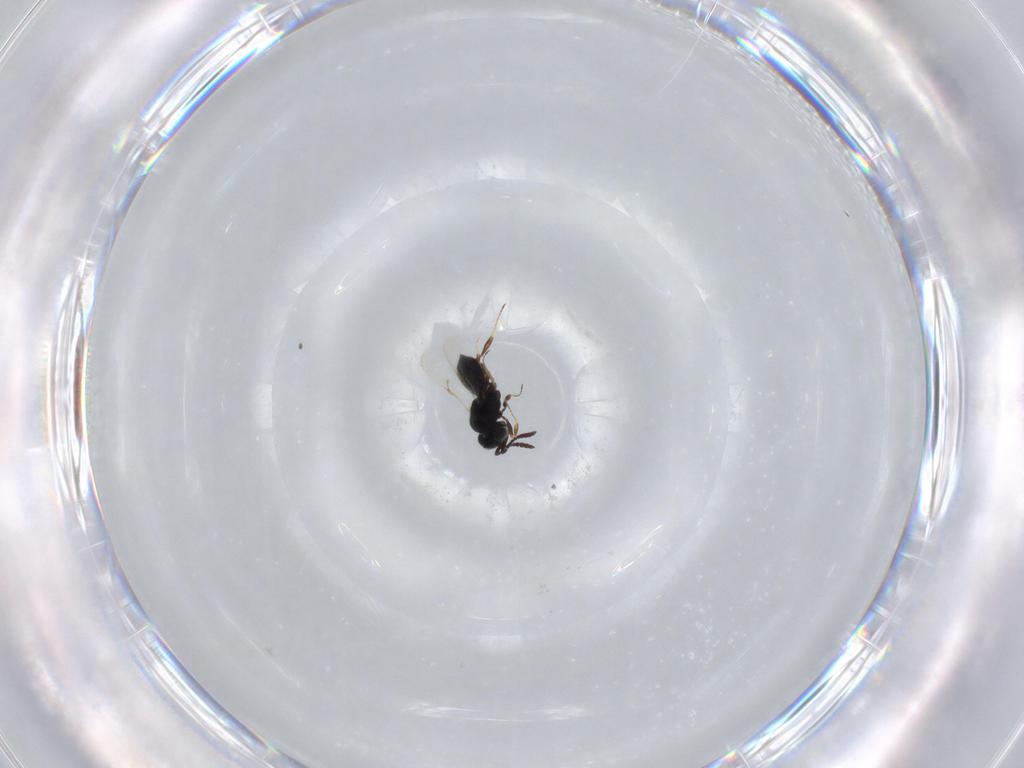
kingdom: Animalia
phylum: Arthropoda
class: Insecta
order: Hymenoptera
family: Scelionidae
